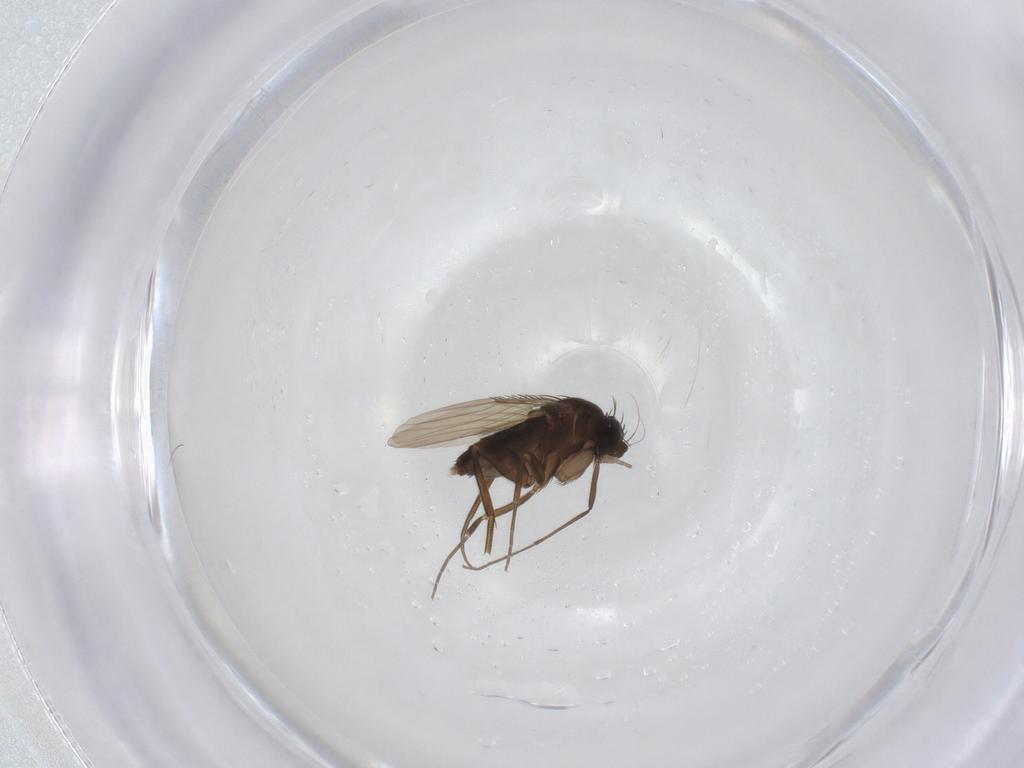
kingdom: Animalia
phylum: Arthropoda
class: Insecta
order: Diptera
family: Phoridae
